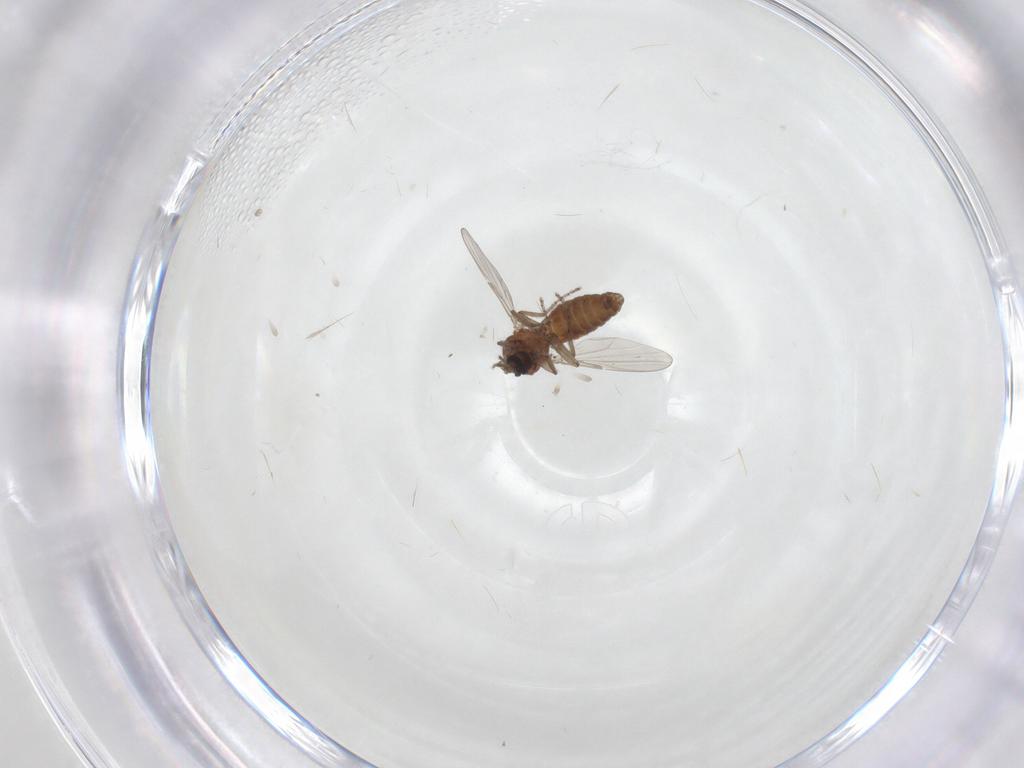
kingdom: Animalia
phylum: Arthropoda
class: Insecta
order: Diptera
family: Ceratopogonidae
